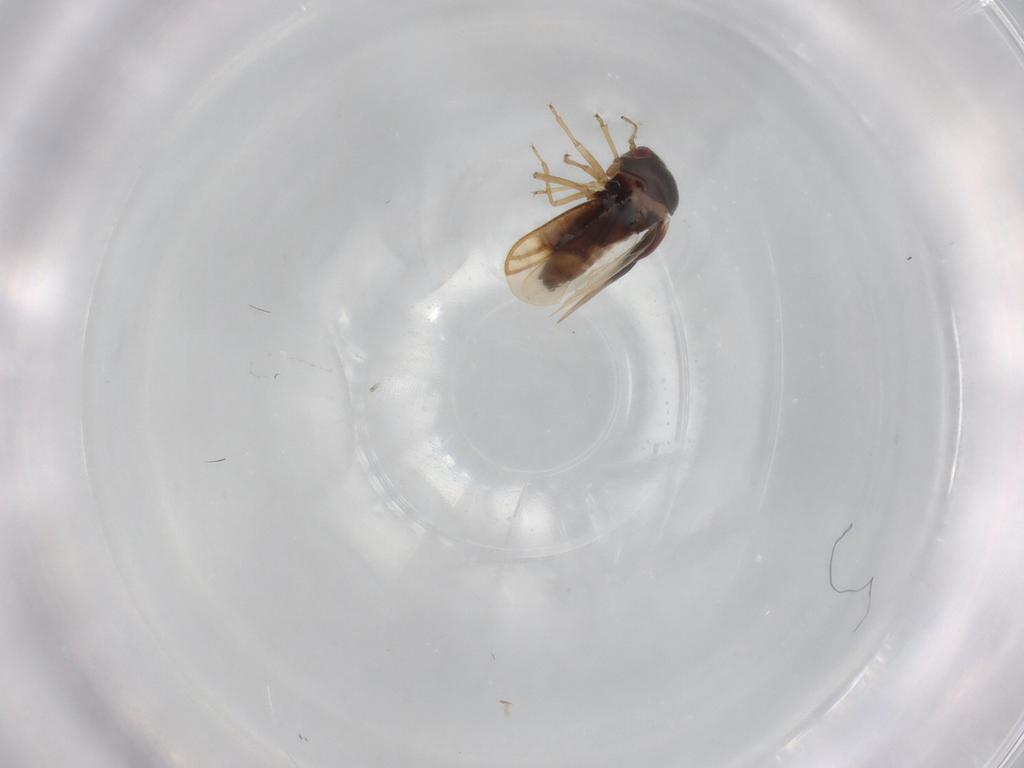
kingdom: Animalia
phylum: Arthropoda
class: Insecta
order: Hemiptera
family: Schizopteridae
